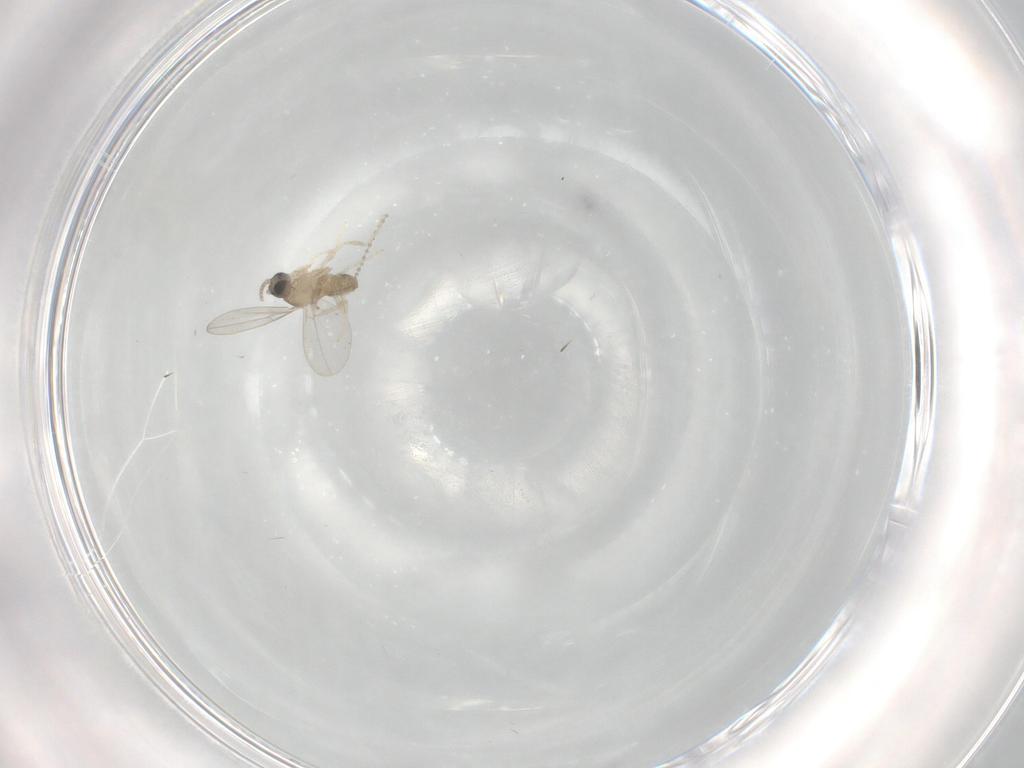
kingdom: Animalia
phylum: Arthropoda
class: Insecta
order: Diptera
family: Cecidomyiidae
